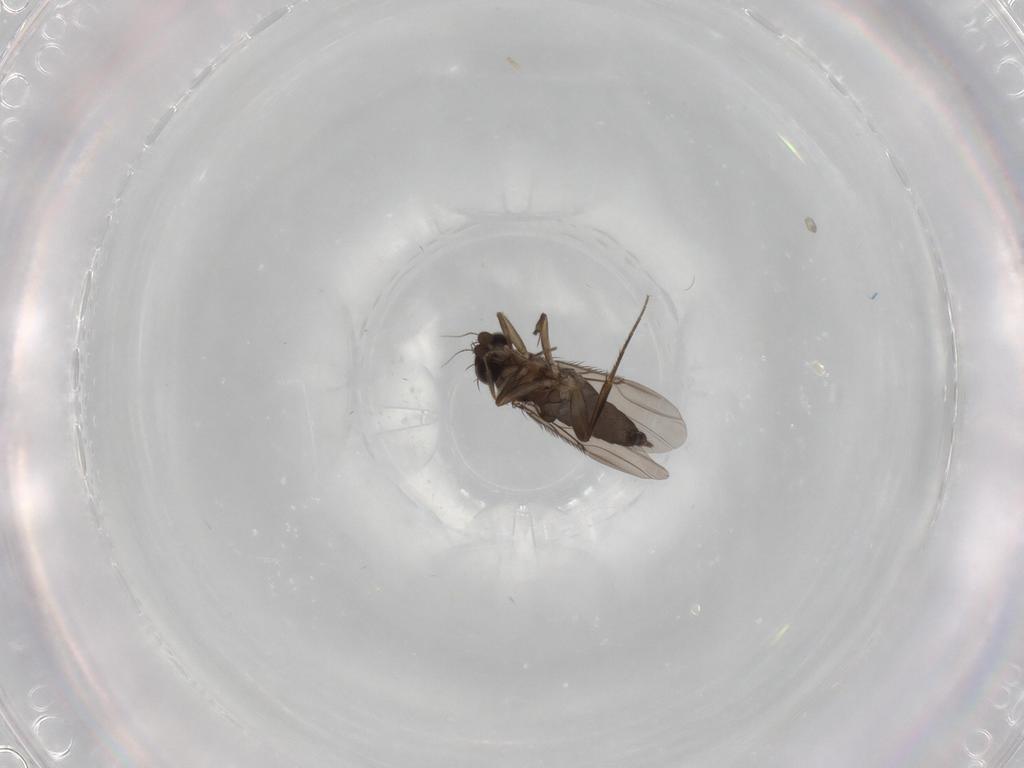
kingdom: Animalia
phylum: Arthropoda
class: Insecta
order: Diptera
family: Phoridae
